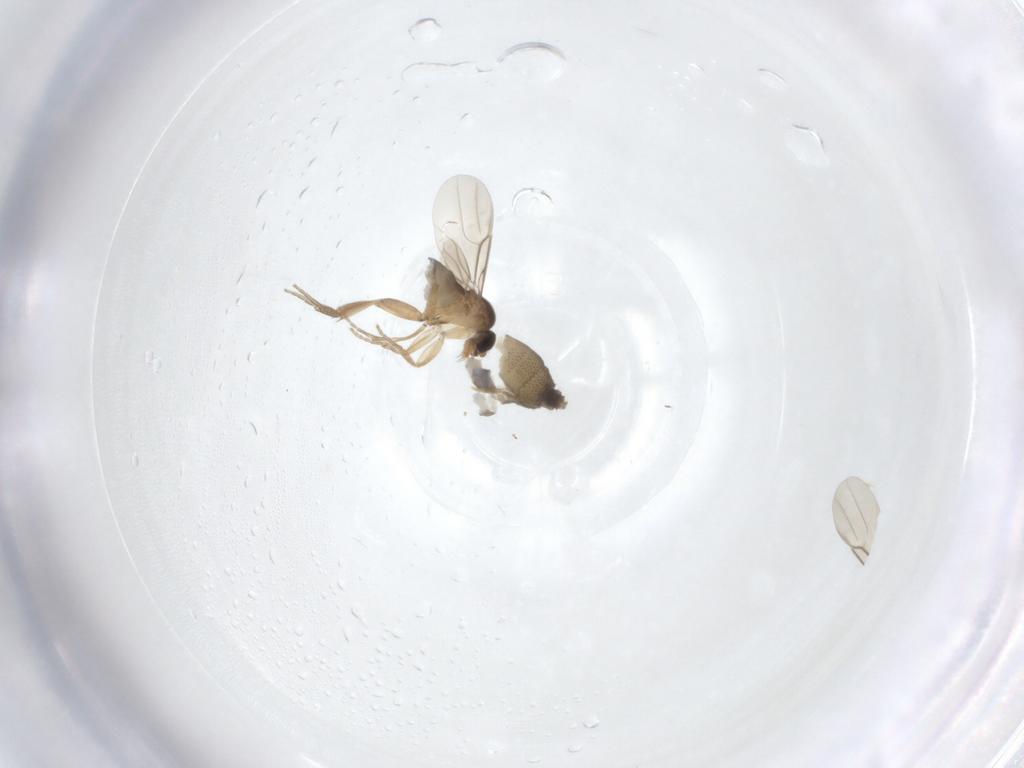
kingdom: Animalia
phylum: Arthropoda
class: Insecta
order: Diptera
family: Phoridae
